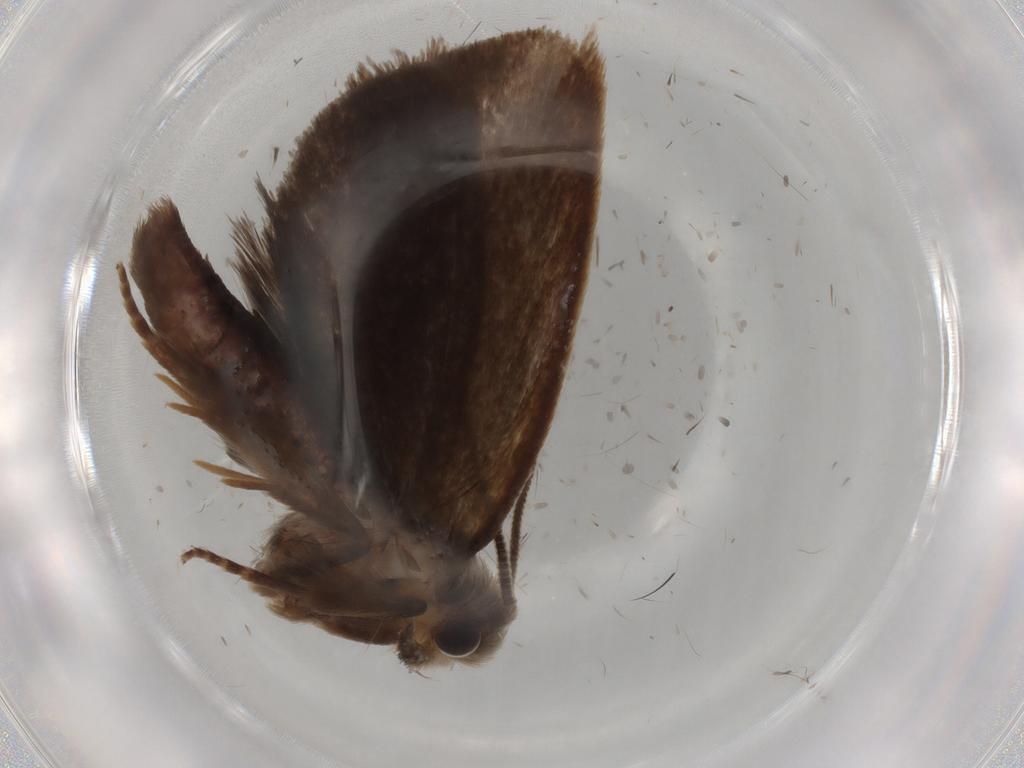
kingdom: Animalia
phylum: Arthropoda
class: Insecta
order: Lepidoptera
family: Tineidae
